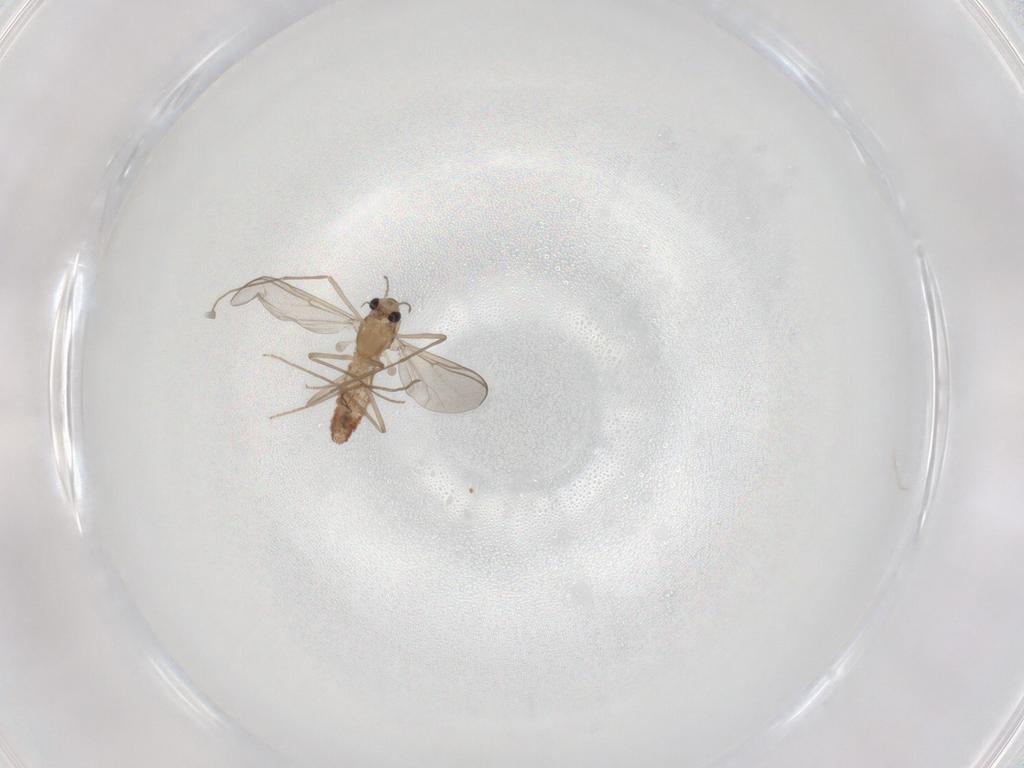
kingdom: Animalia
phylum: Arthropoda
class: Insecta
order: Diptera
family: Chironomidae
